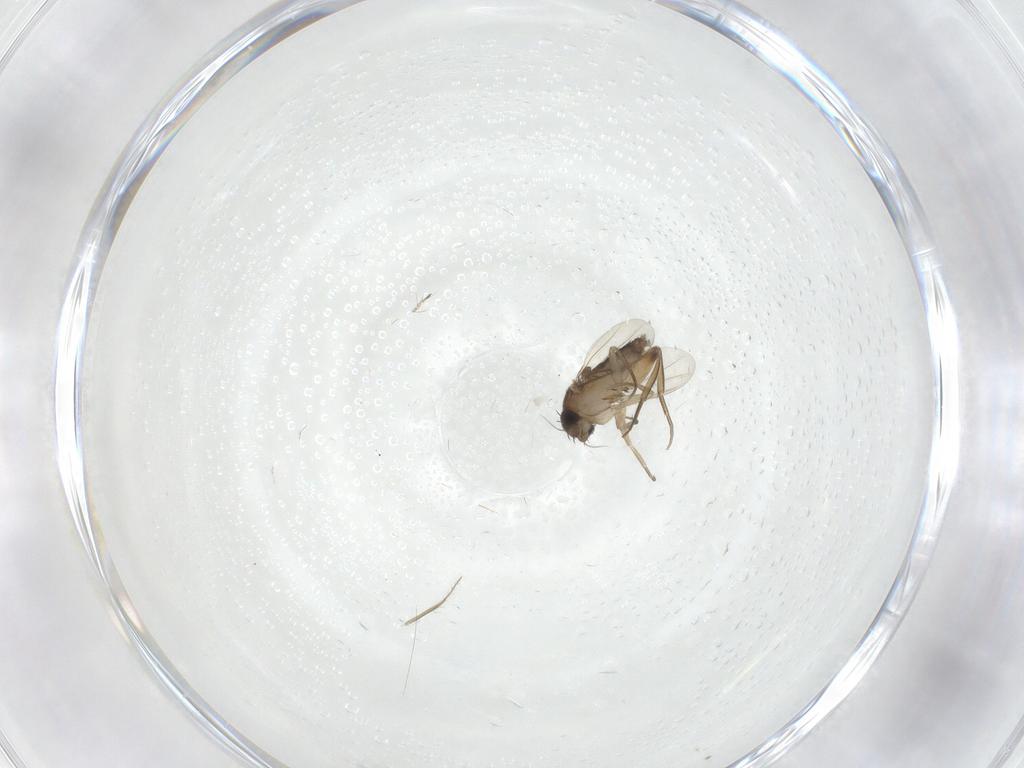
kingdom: Animalia
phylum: Arthropoda
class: Insecta
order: Diptera
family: Phoridae
